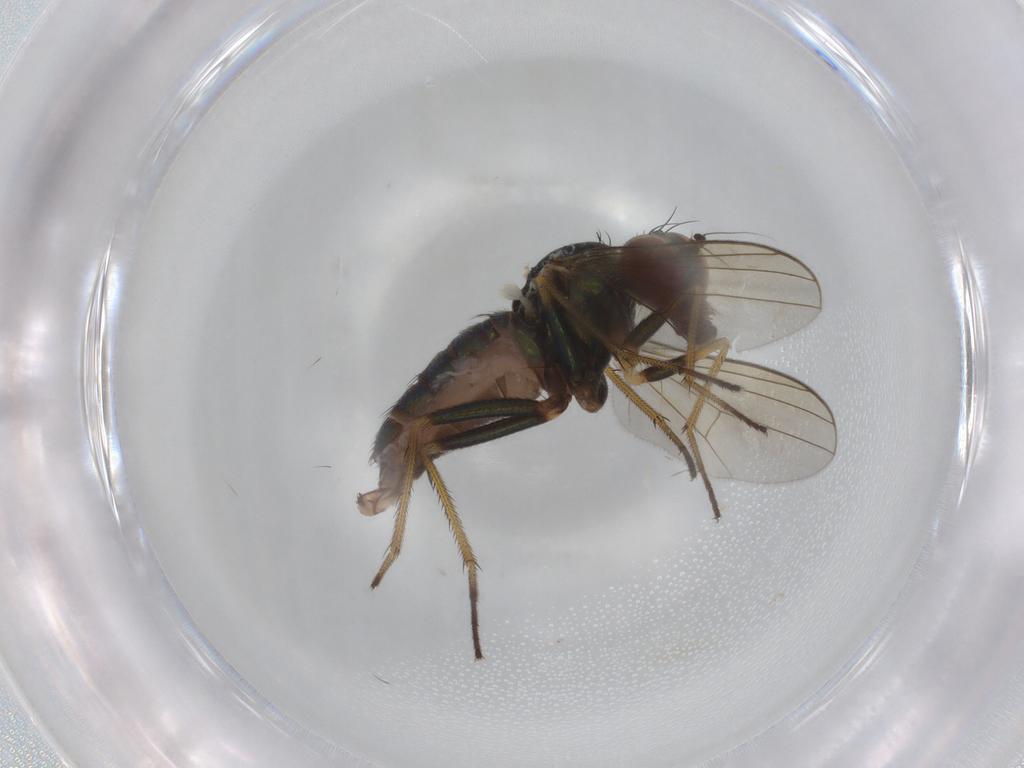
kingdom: Animalia
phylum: Arthropoda
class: Insecta
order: Diptera
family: Dolichopodidae
